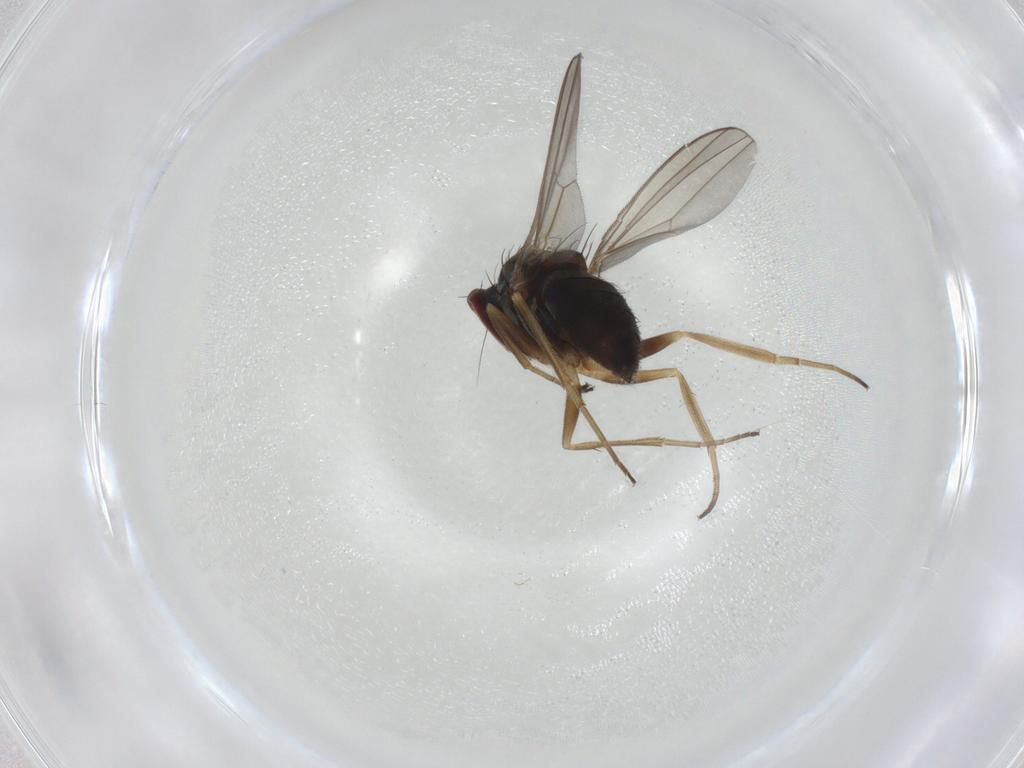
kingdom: Animalia
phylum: Arthropoda
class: Insecta
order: Diptera
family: Dolichopodidae
